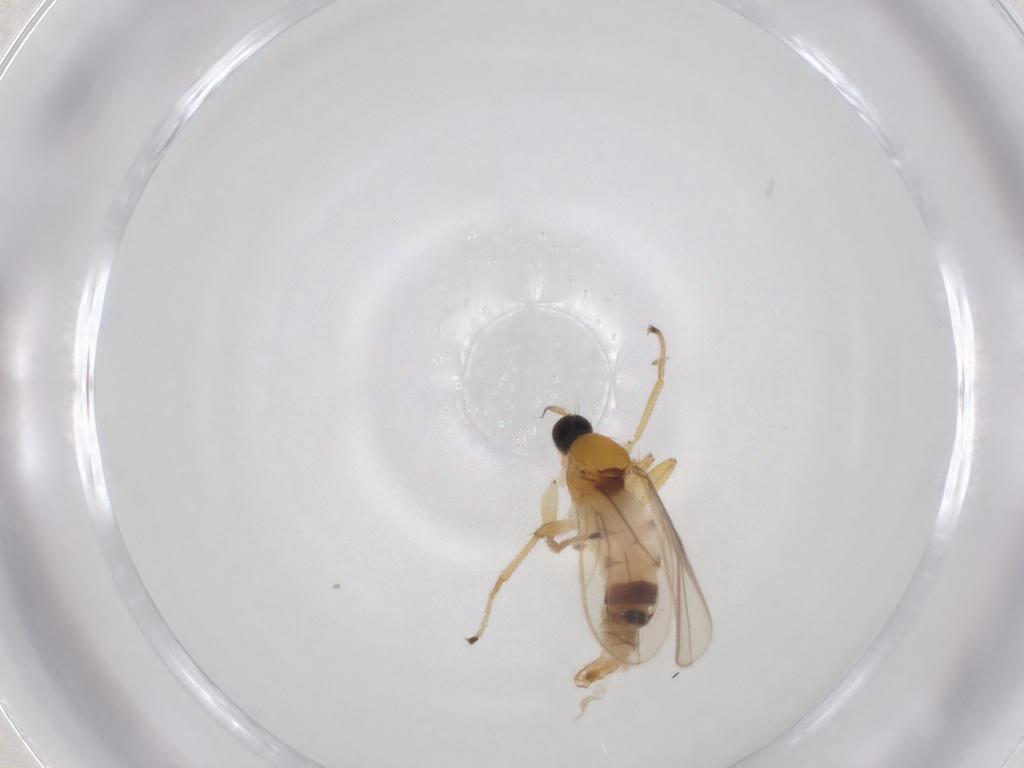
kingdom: Animalia
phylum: Arthropoda
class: Insecta
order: Diptera
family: Hybotidae
